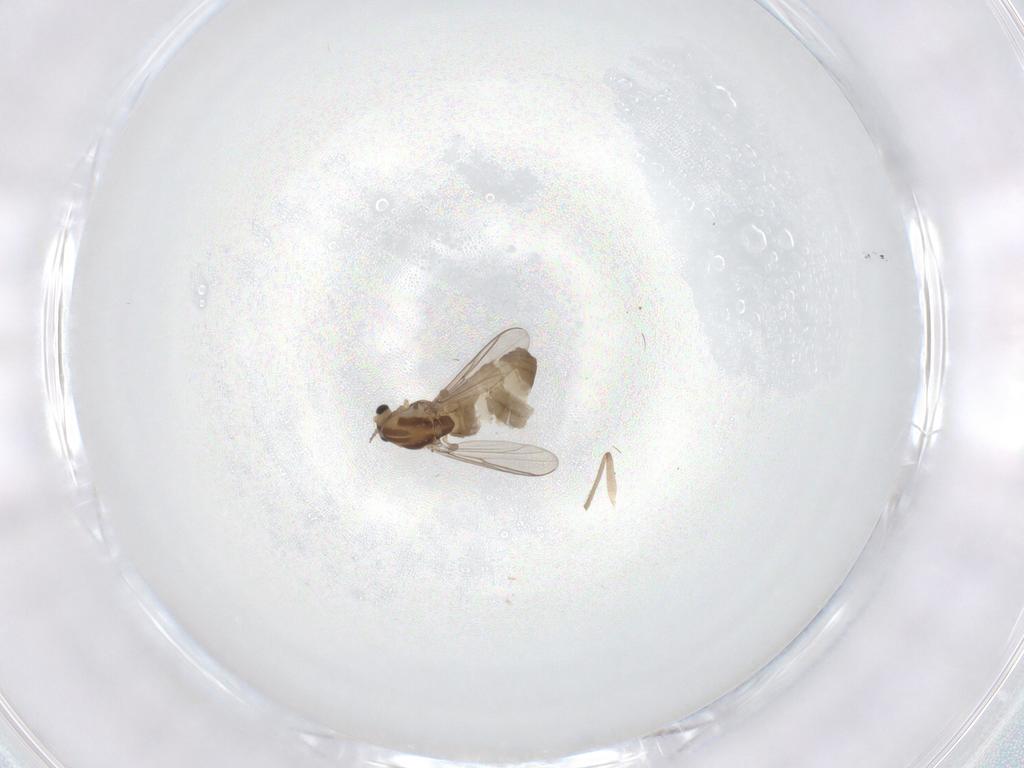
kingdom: Animalia
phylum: Arthropoda
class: Insecta
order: Diptera
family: Chironomidae
